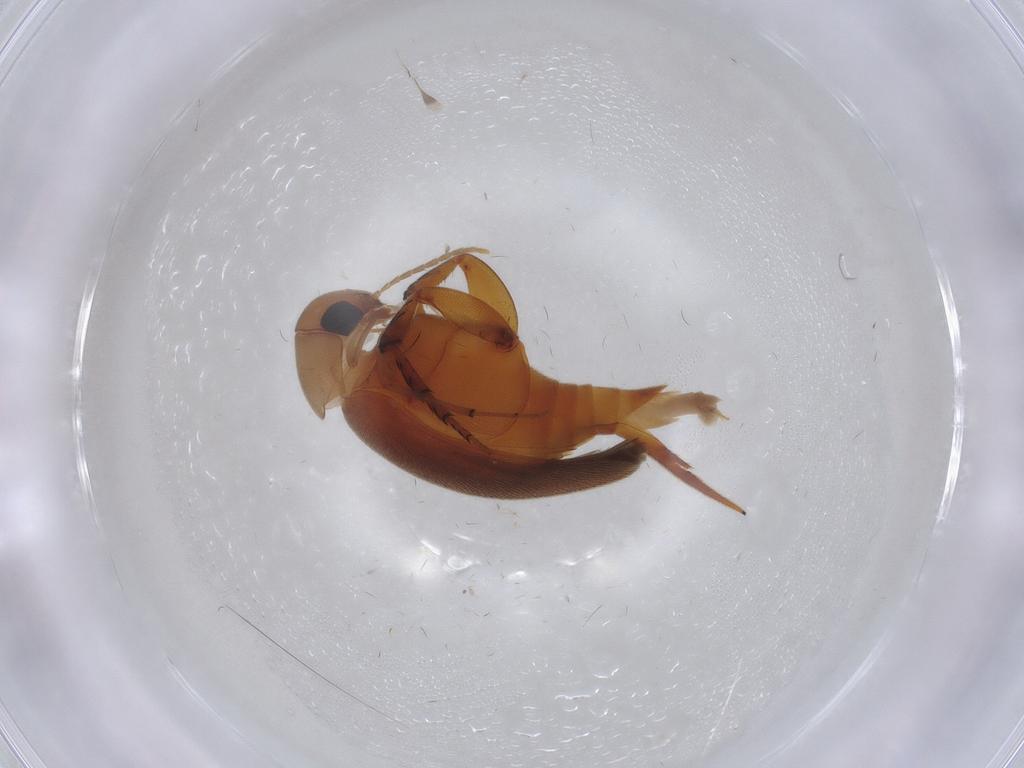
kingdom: Animalia
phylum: Arthropoda
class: Insecta
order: Coleoptera
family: Mordellidae
